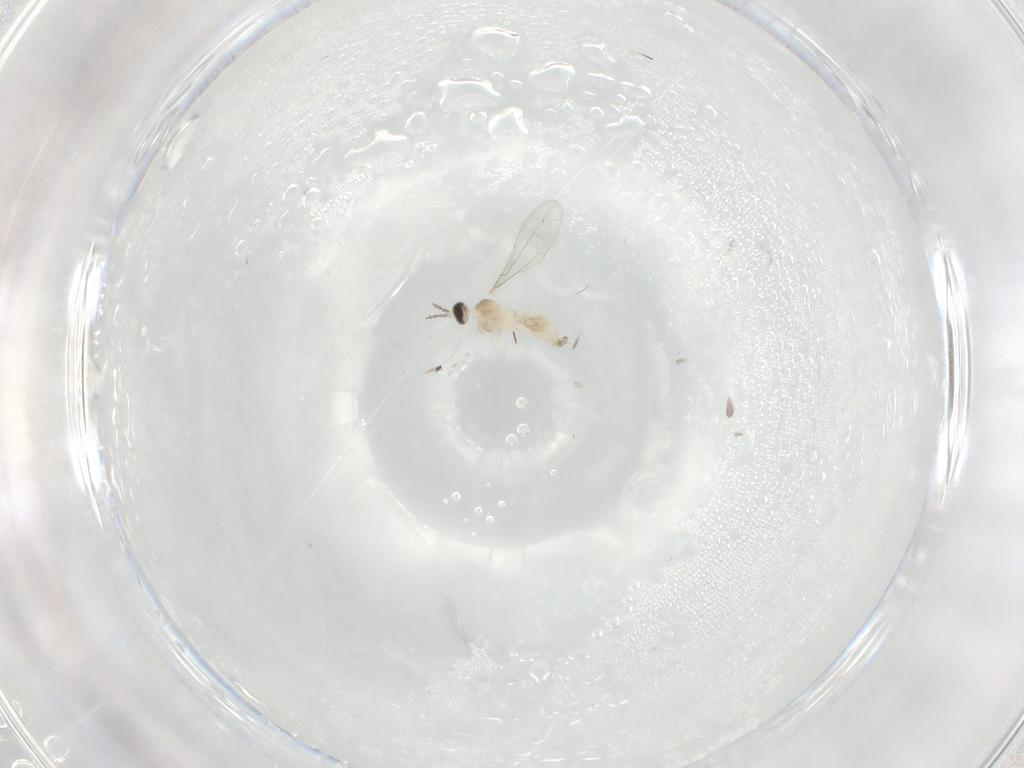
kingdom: Animalia
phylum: Arthropoda
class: Insecta
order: Diptera
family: Cecidomyiidae
